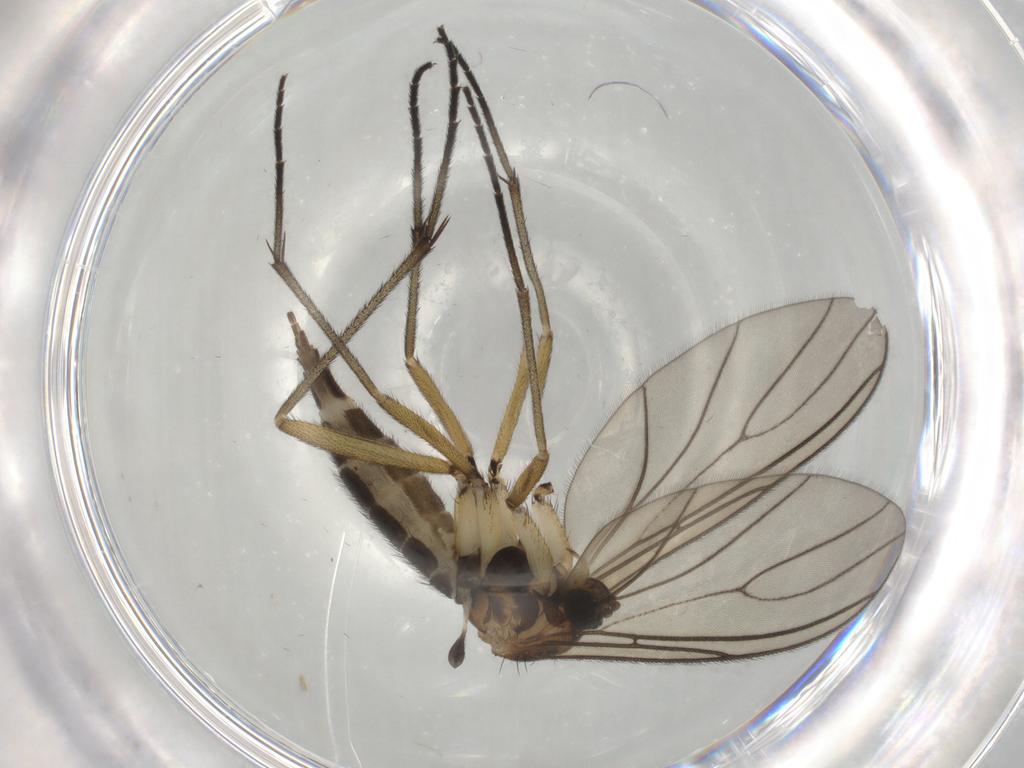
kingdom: Animalia
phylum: Arthropoda
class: Insecta
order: Diptera
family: Sciaridae
